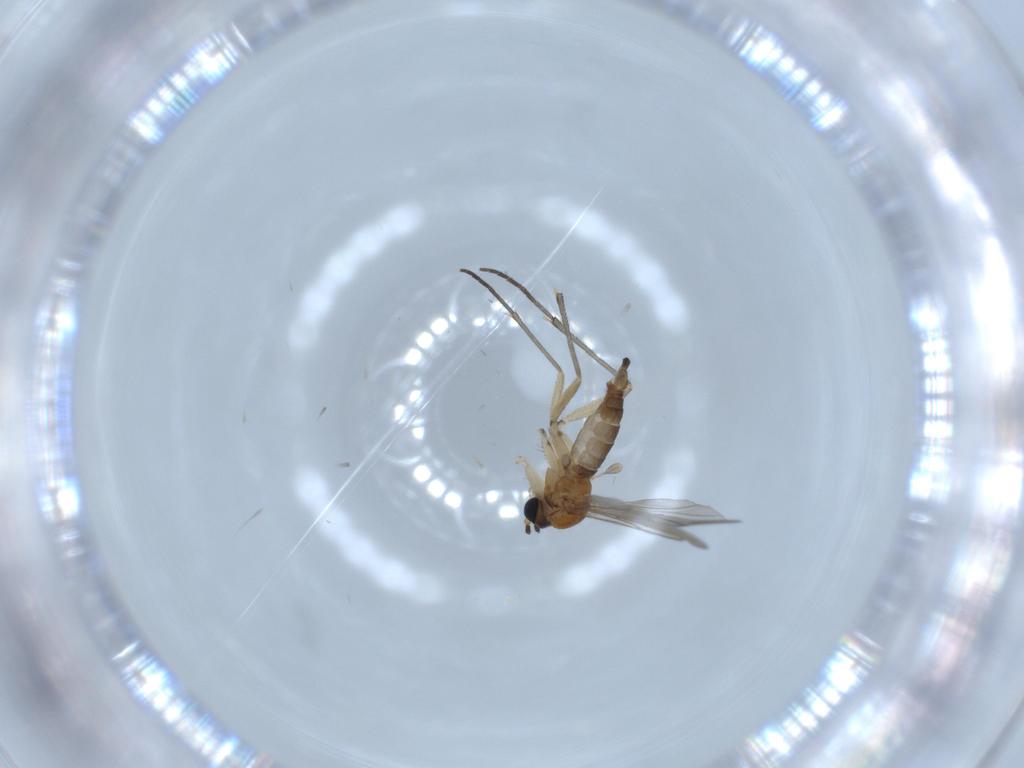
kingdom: Animalia
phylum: Arthropoda
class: Insecta
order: Diptera
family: Sciaridae
